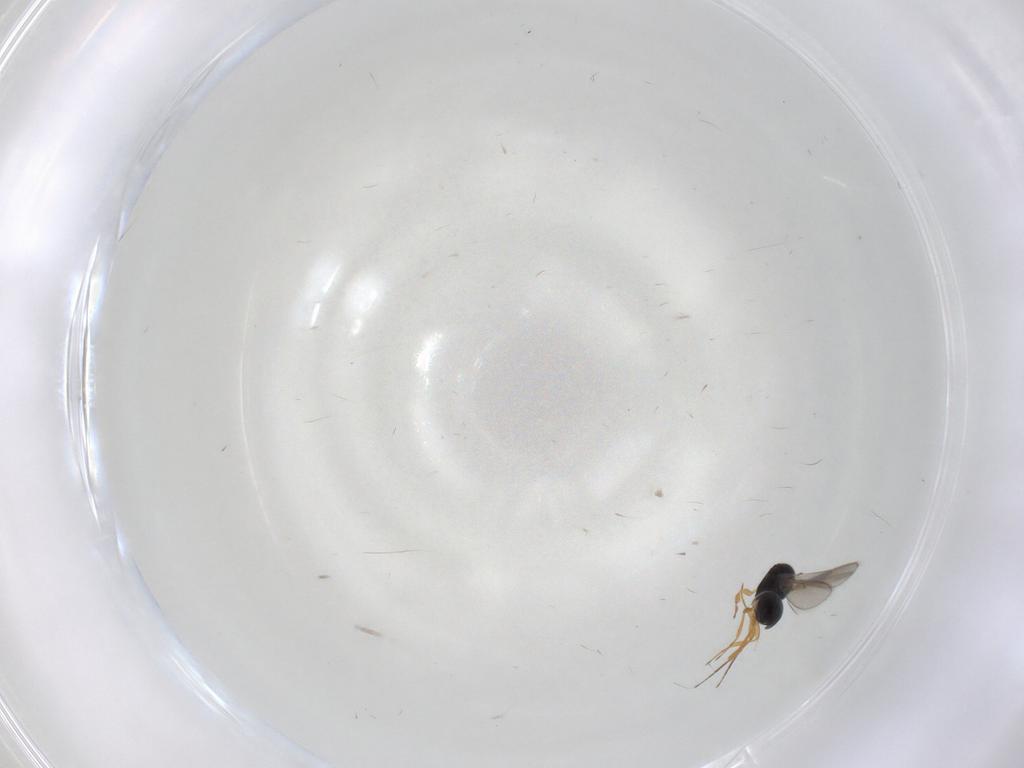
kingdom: Animalia
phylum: Arthropoda
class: Insecta
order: Hymenoptera
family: Scelionidae
